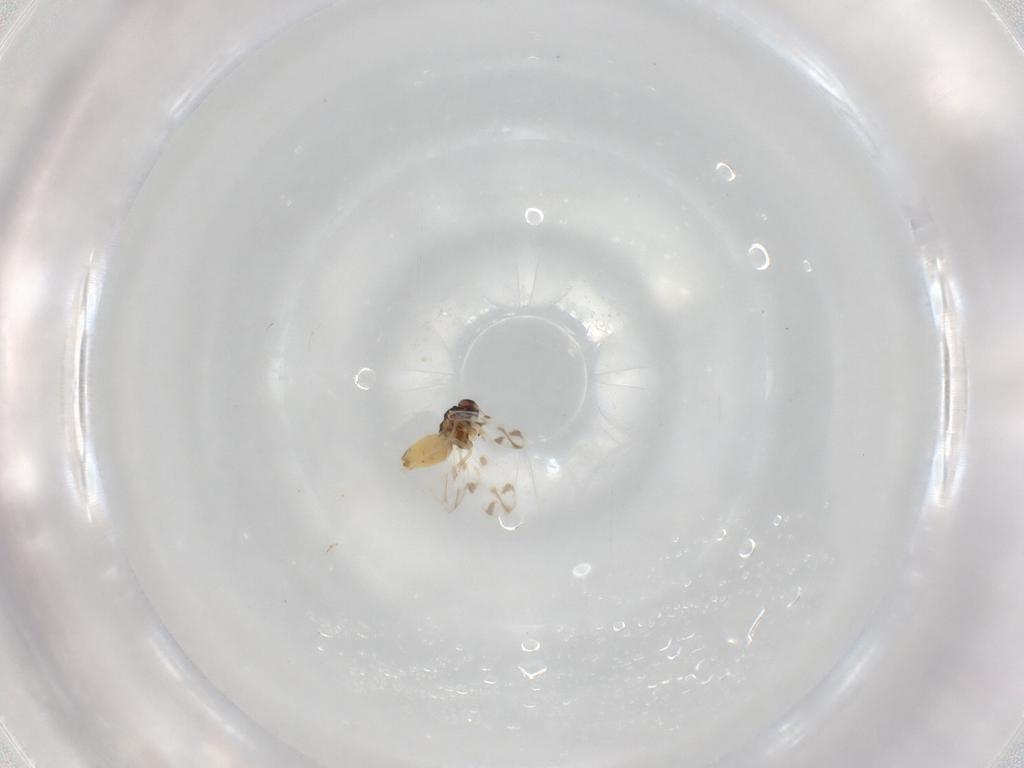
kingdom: Animalia
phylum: Arthropoda
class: Insecta
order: Hemiptera
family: Aleyrodidae
